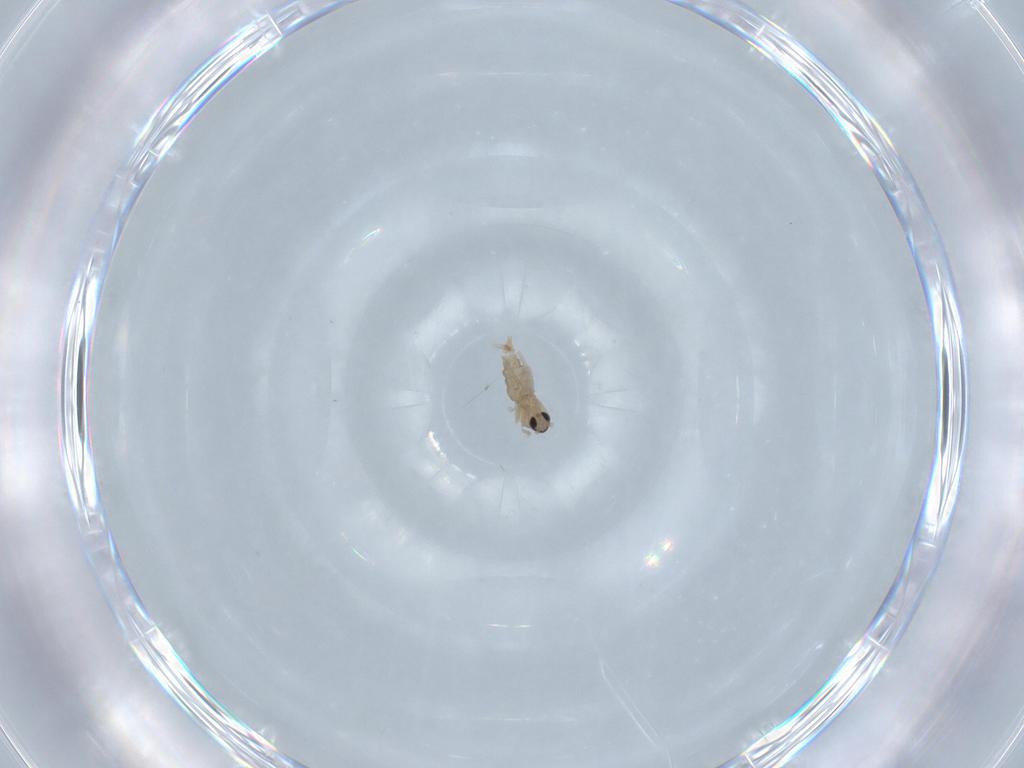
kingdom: Animalia
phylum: Arthropoda
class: Insecta
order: Diptera
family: Cecidomyiidae
